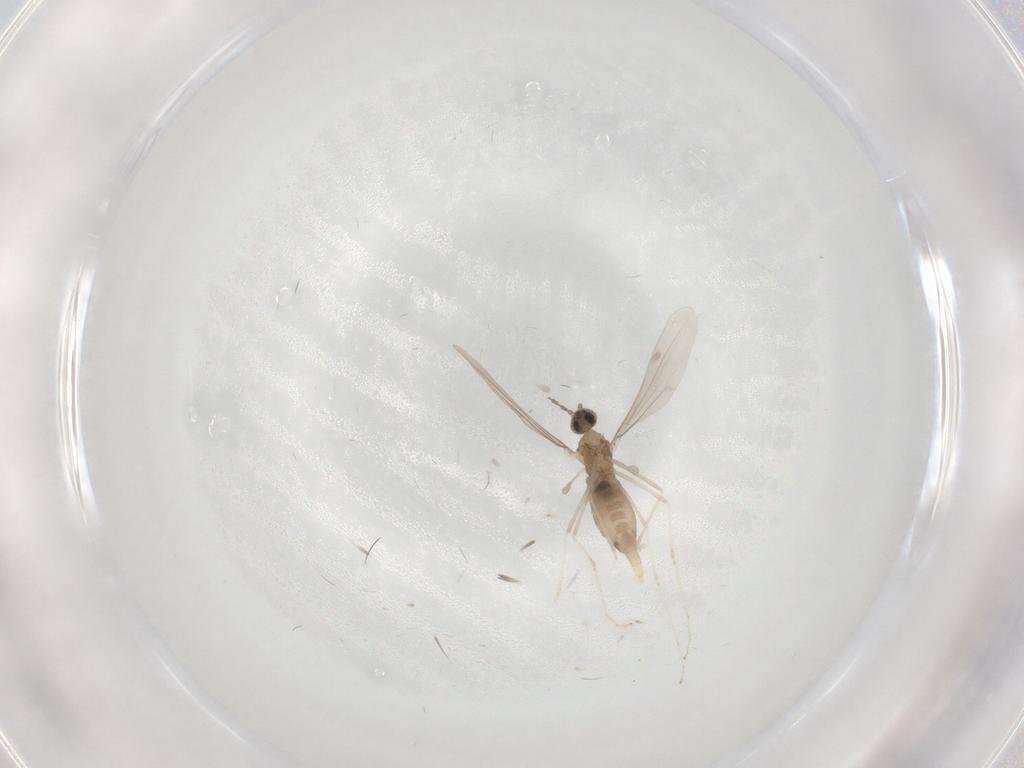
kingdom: Animalia
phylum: Arthropoda
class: Insecta
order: Diptera
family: Cecidomyiidae
